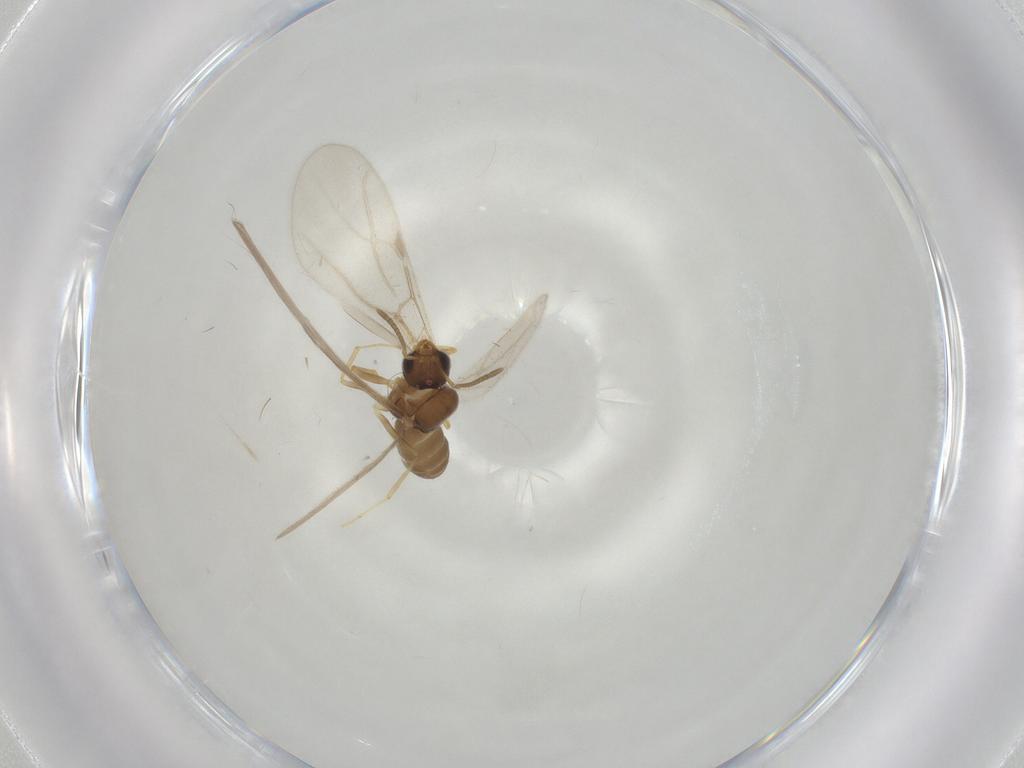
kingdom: Animalia
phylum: Arthropoda
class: Insecta
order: Hymenoptera
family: Formicidae
